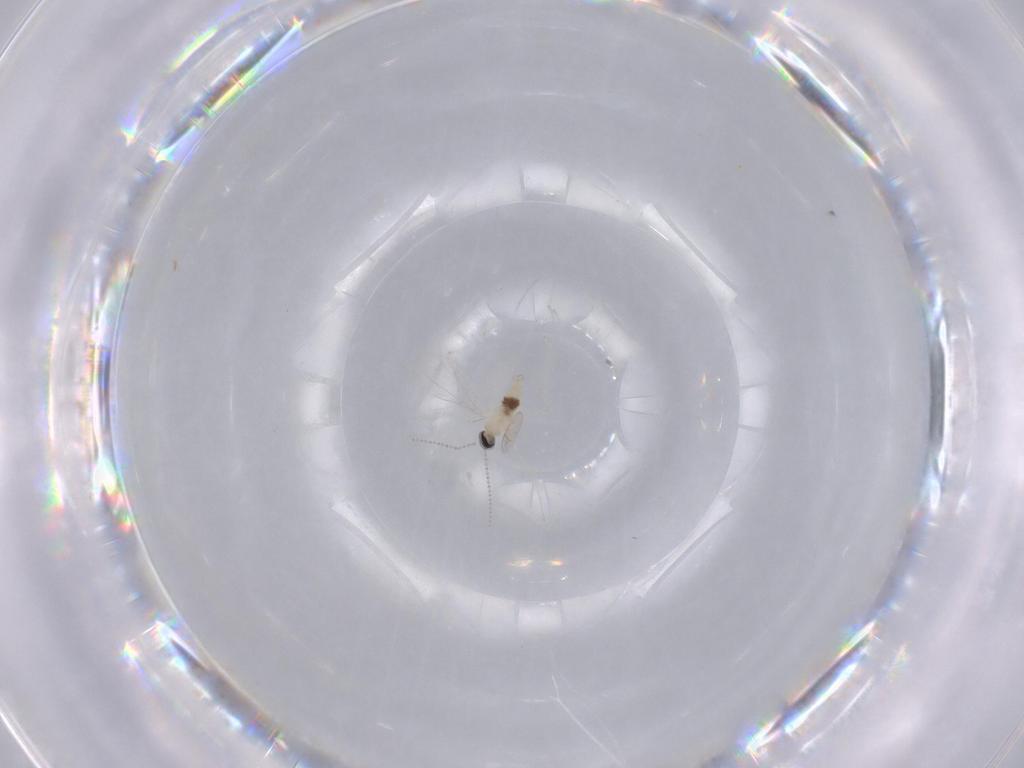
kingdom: Animalia
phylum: Arthropoda
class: Insecta
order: Diptera
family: Cecidomyiidae
